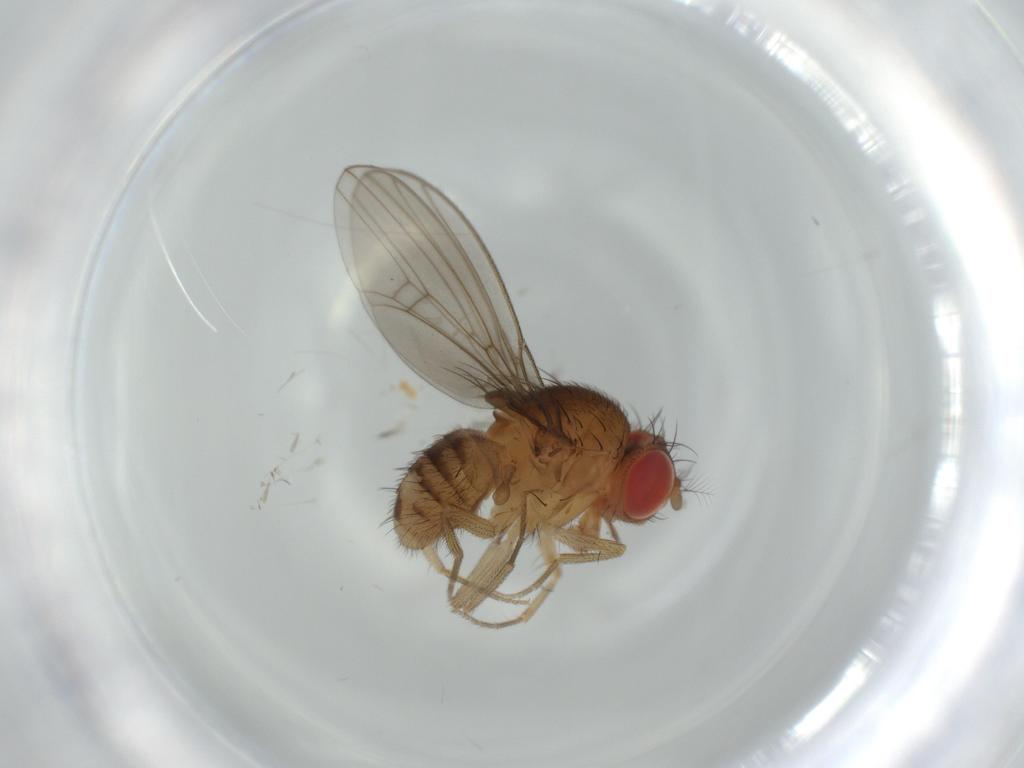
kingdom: Animalia
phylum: Arthropoda
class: Insecta
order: Diptera
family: Drosophilidae
